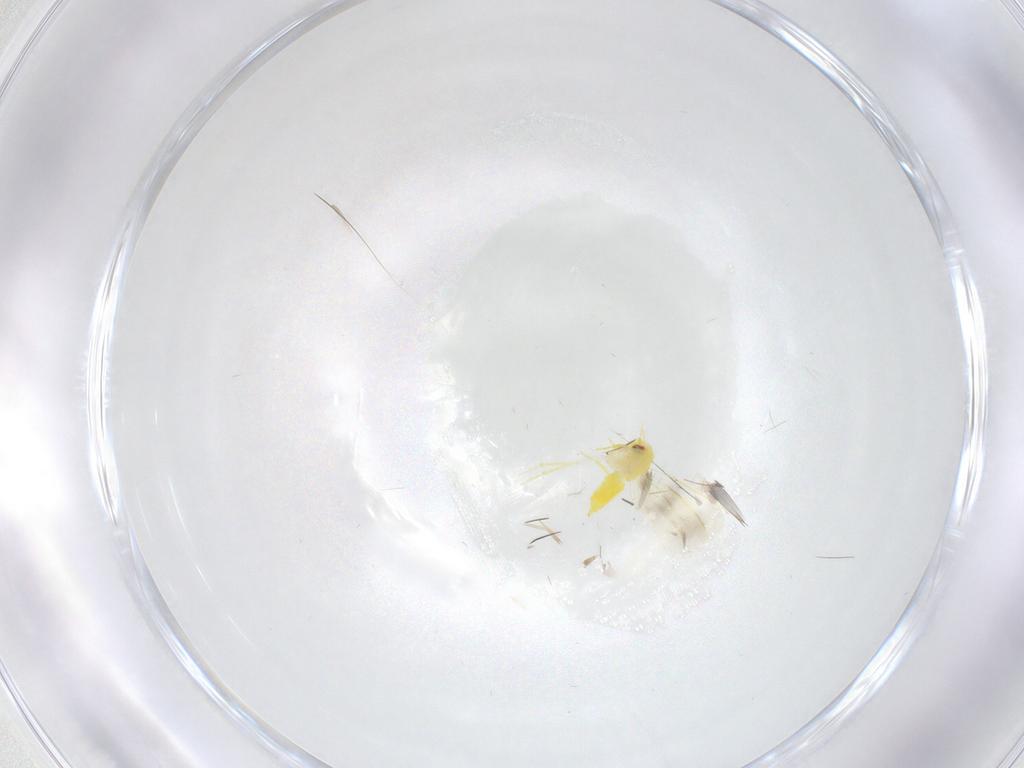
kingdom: Animalia
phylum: Arthropoda
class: Insecta
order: Hemiptera
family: Aleyrodidae
